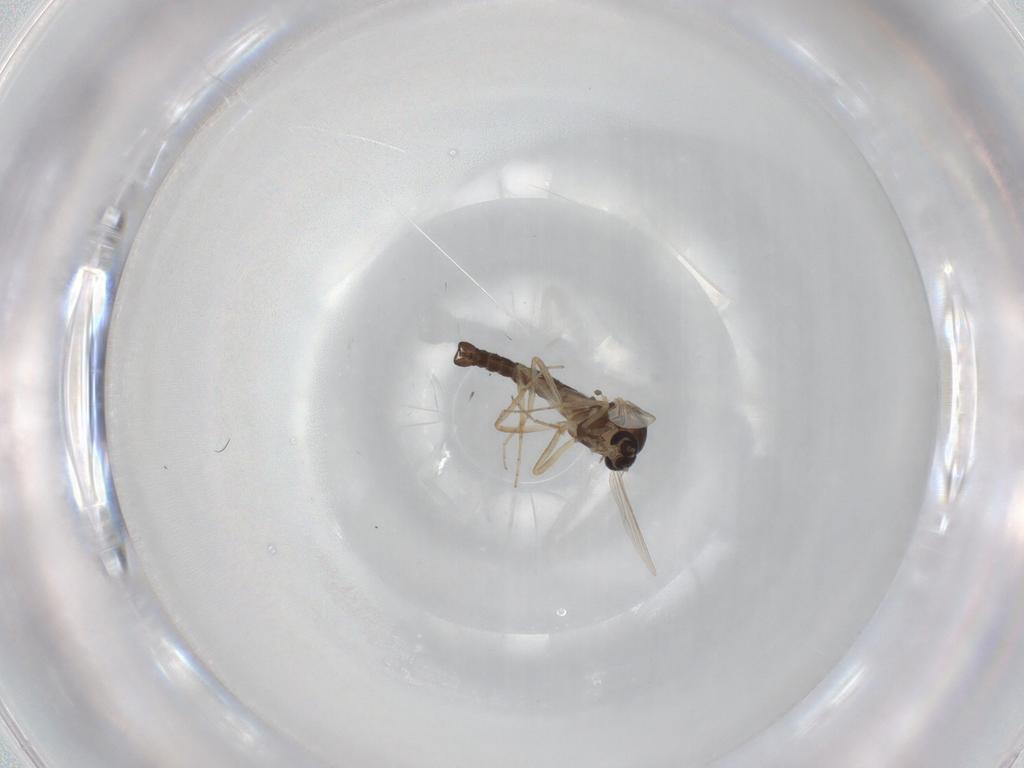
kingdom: Animalia
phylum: Arthropoda
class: Insecta
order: Diptera
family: Ceratopogonidae
